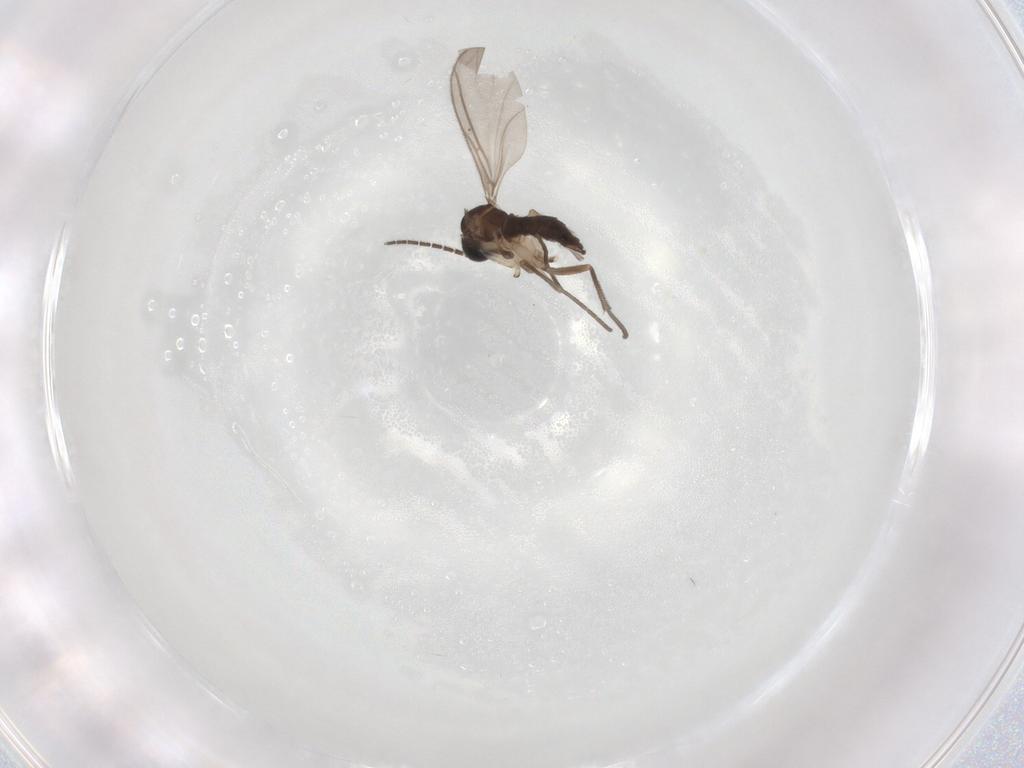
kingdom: Animalia
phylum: Arthropoda
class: Insecta
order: Diptera
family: Sciaridae
